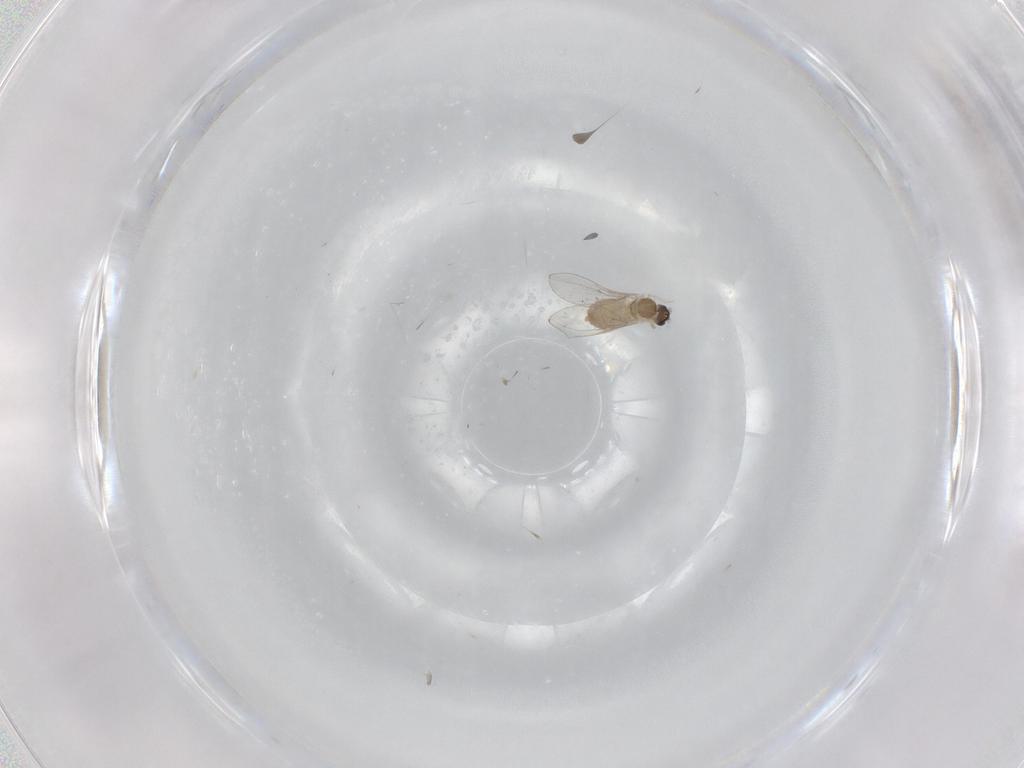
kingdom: Animalia
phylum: Arthropoda
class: Insecta
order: Diptera
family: Cecidomyiidae
